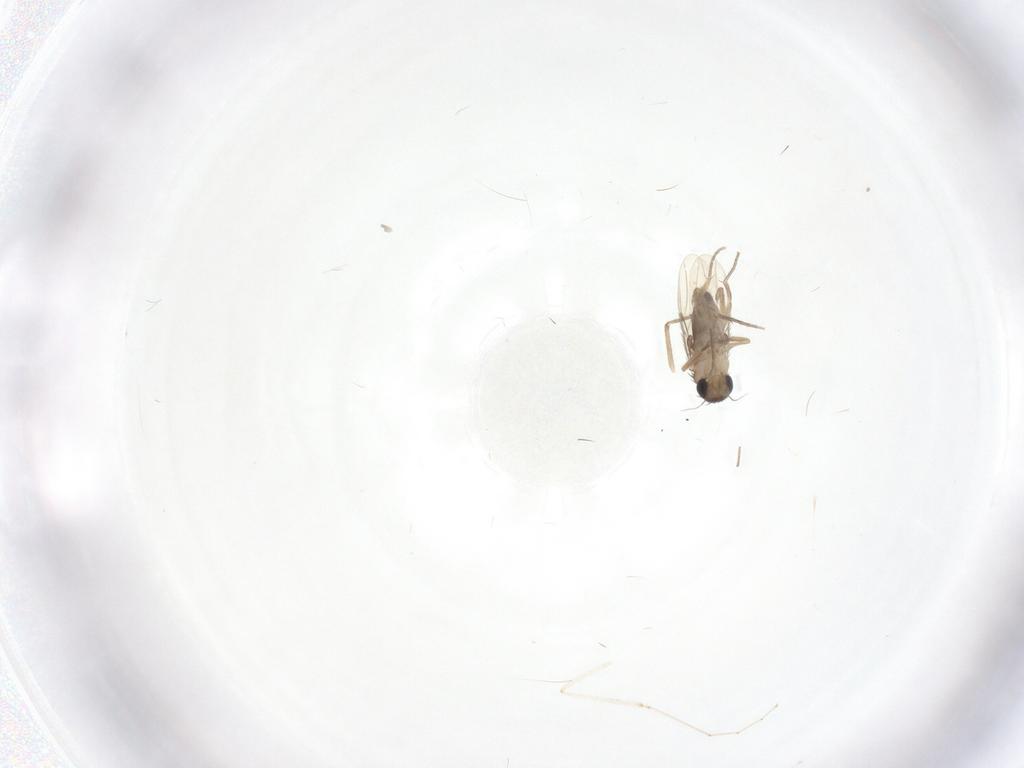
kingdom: Animalia
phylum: Arthropoda
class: Insecta
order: Diptera
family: Cecidomyiidae
